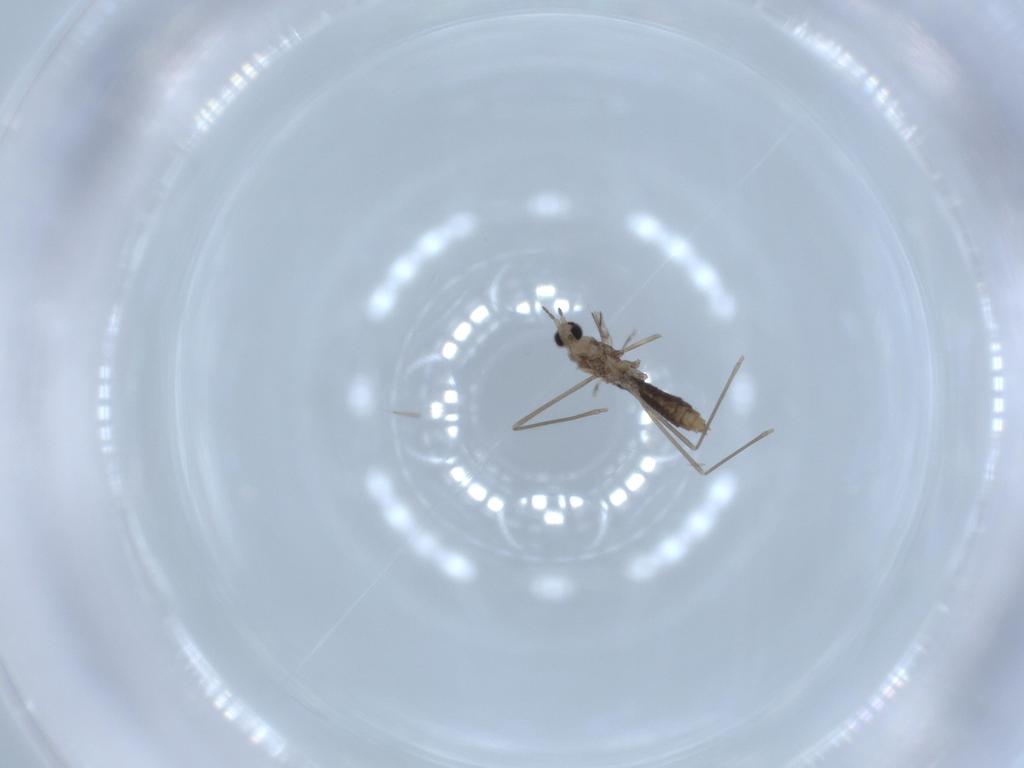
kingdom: Animalia
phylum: Arthropoda
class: Insecta
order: Diptera
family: Cecidomyiidae
